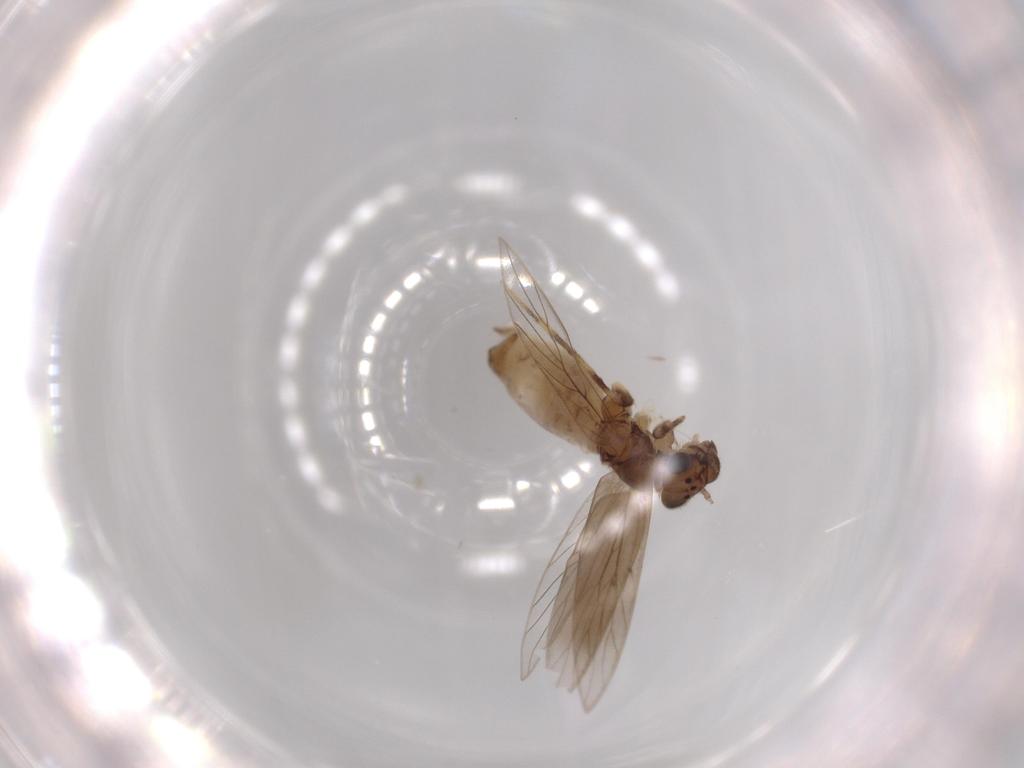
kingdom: Animalia
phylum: Arthropoda
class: Insecta
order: Psocodea
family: Lepidopsocidae
